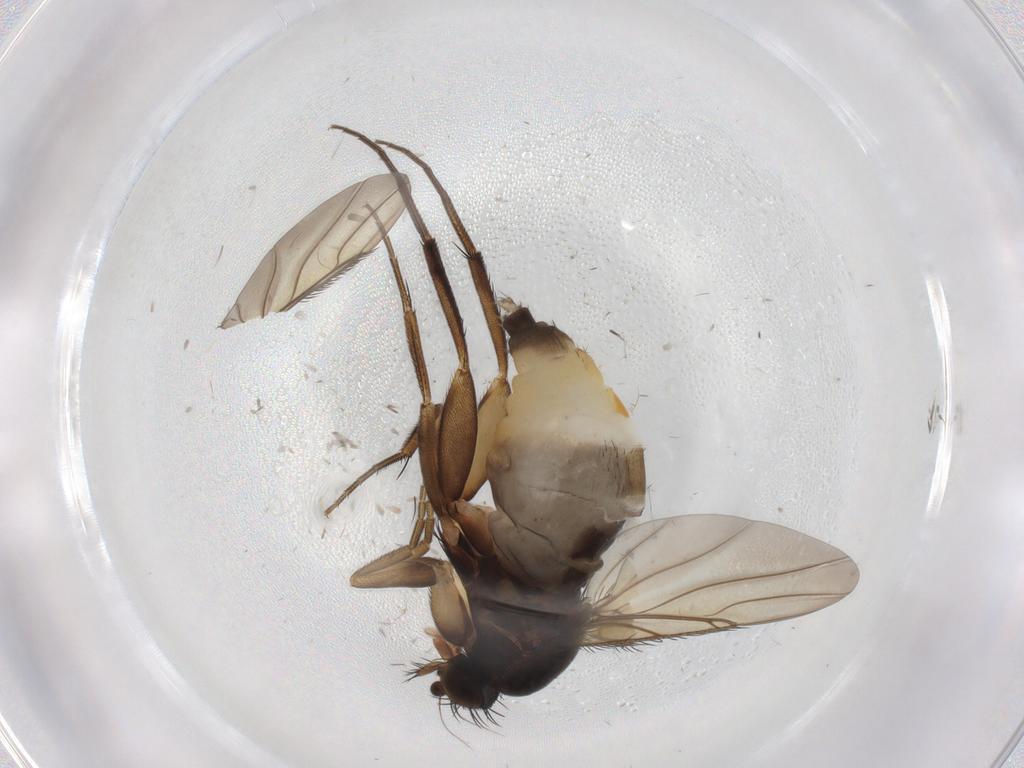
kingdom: Animalia
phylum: Arthropoda
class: Insecta
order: Diptera
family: Phoridae
